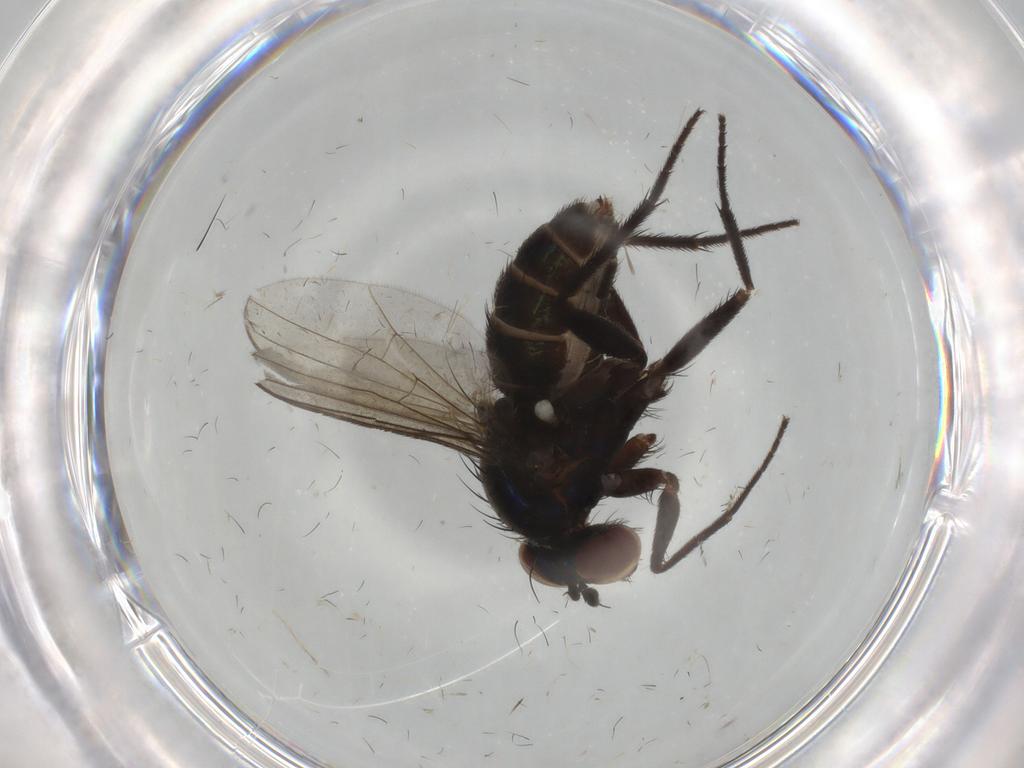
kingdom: Animalia
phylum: Arthropoda
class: Insecta
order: Diptera
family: Dolichopodidae
